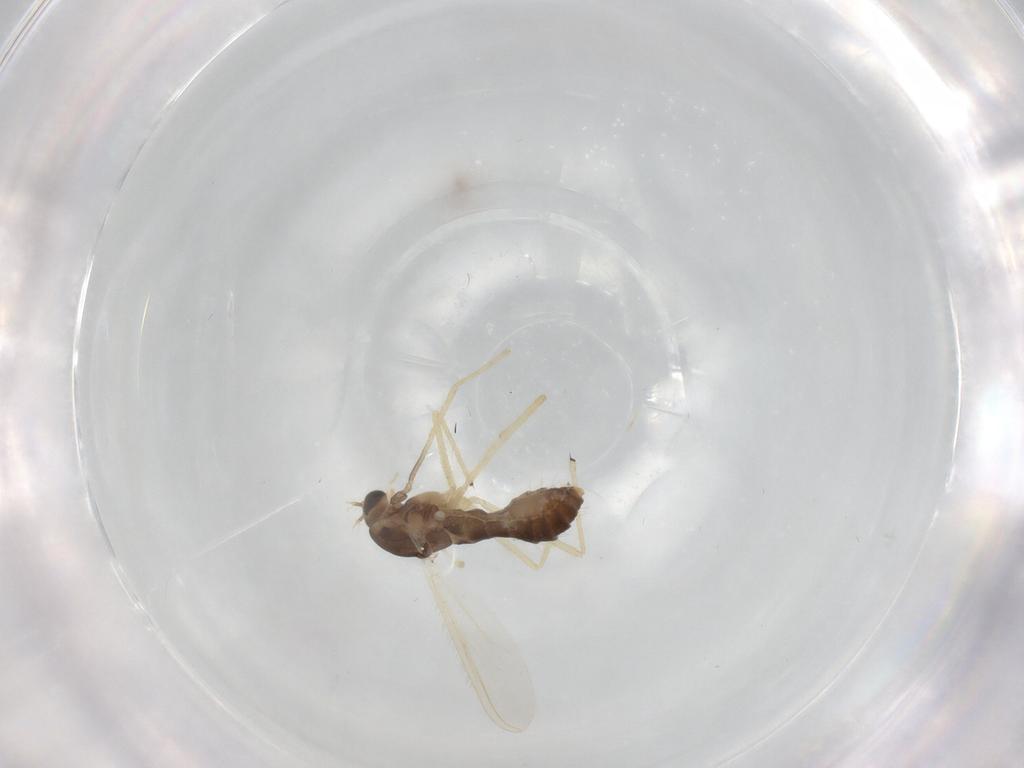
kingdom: Animalia
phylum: Arthropoda
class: Insecta
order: Diptera
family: Chironomidae
